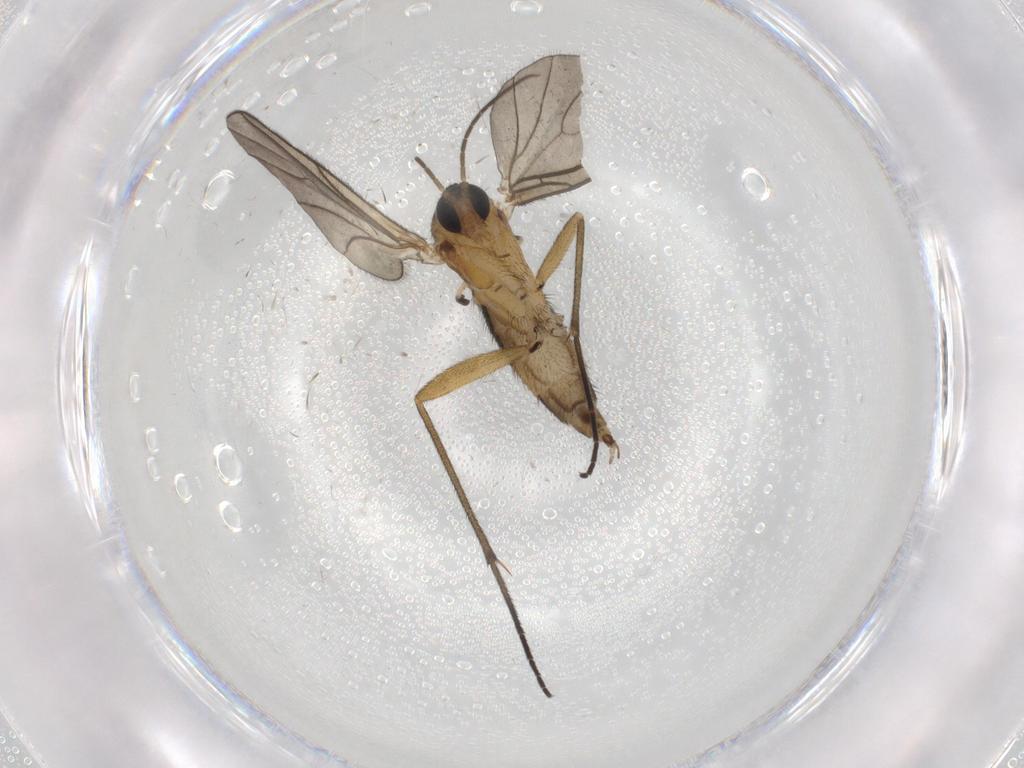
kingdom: Animalia
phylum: Arthropoda
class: Insecta
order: Diptera
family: Sciaridae
